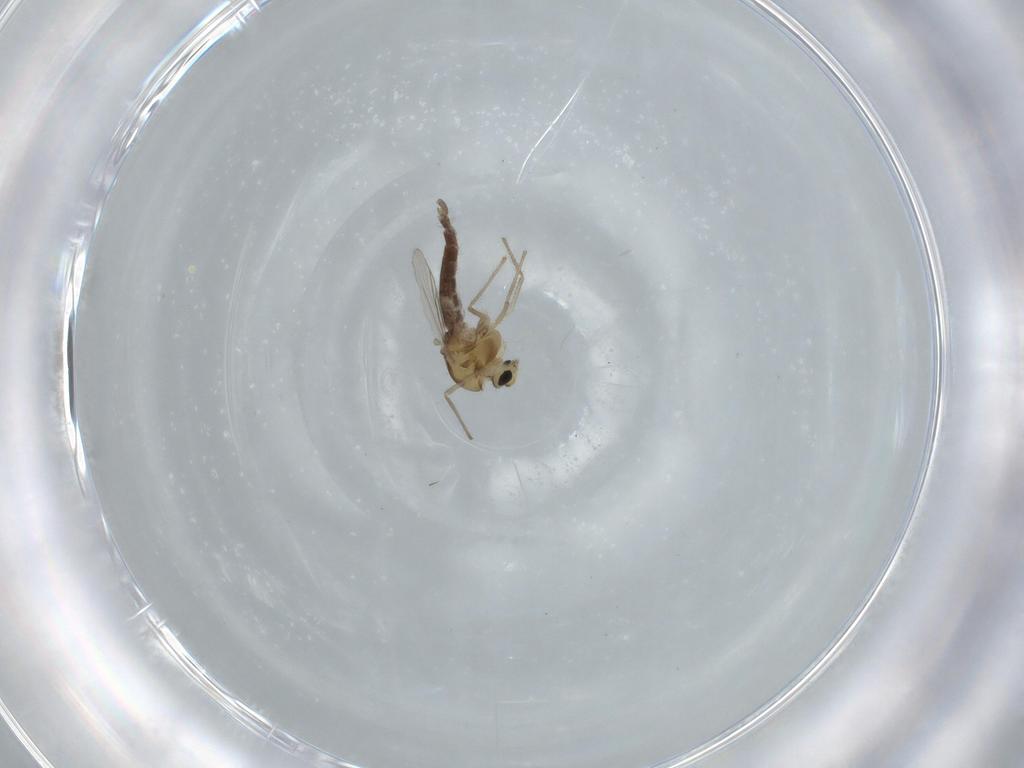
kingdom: Animalia
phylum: Arthropoda
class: Insecta
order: Diptera
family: Chironomidae
